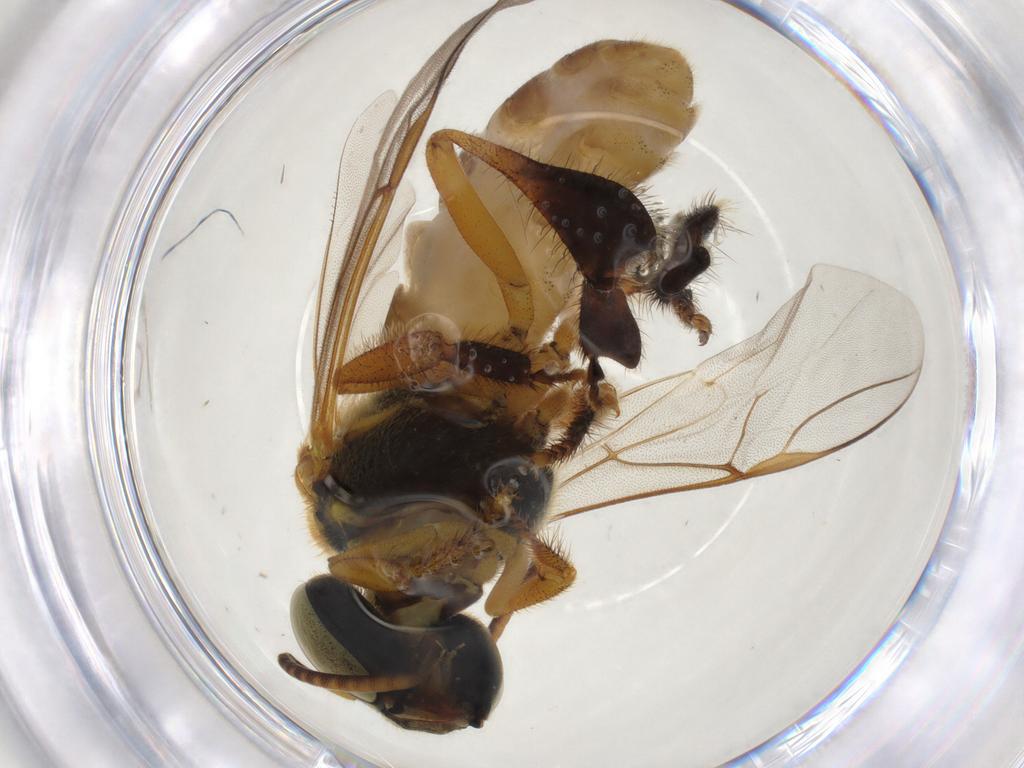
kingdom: Animalia
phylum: Arthropoda
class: Insecta
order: Hymenoptera
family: Apidae
